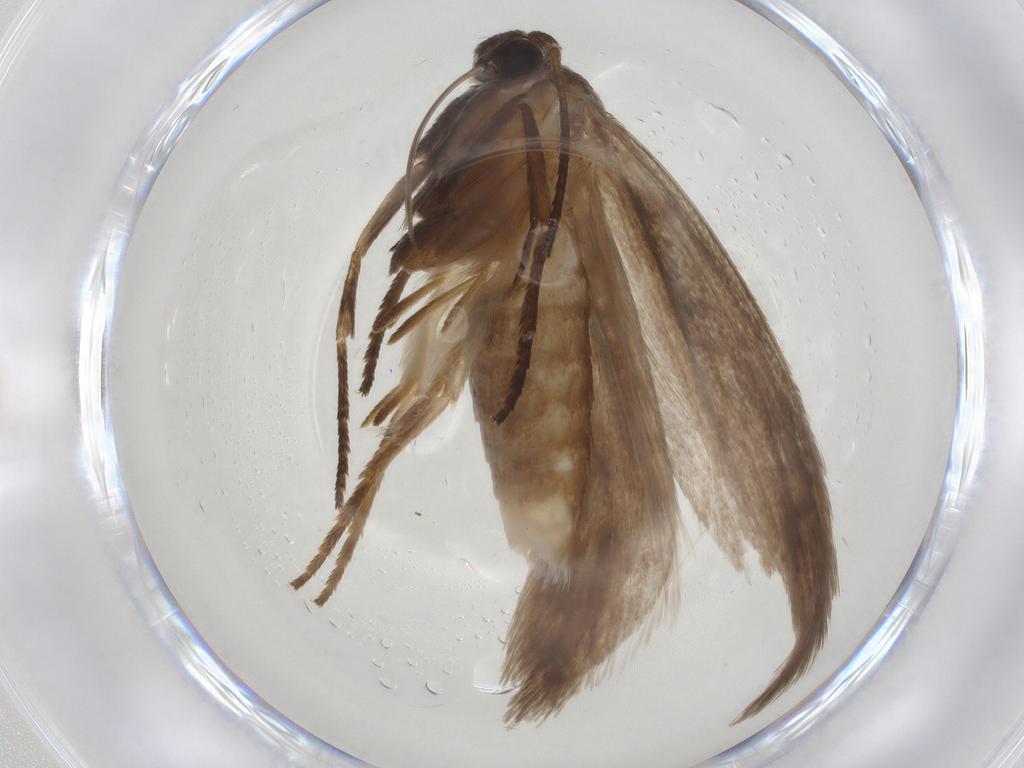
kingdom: Animalia
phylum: Arthropoda
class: Insecta
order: Lepidoptera
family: Roeslerstammiidae
